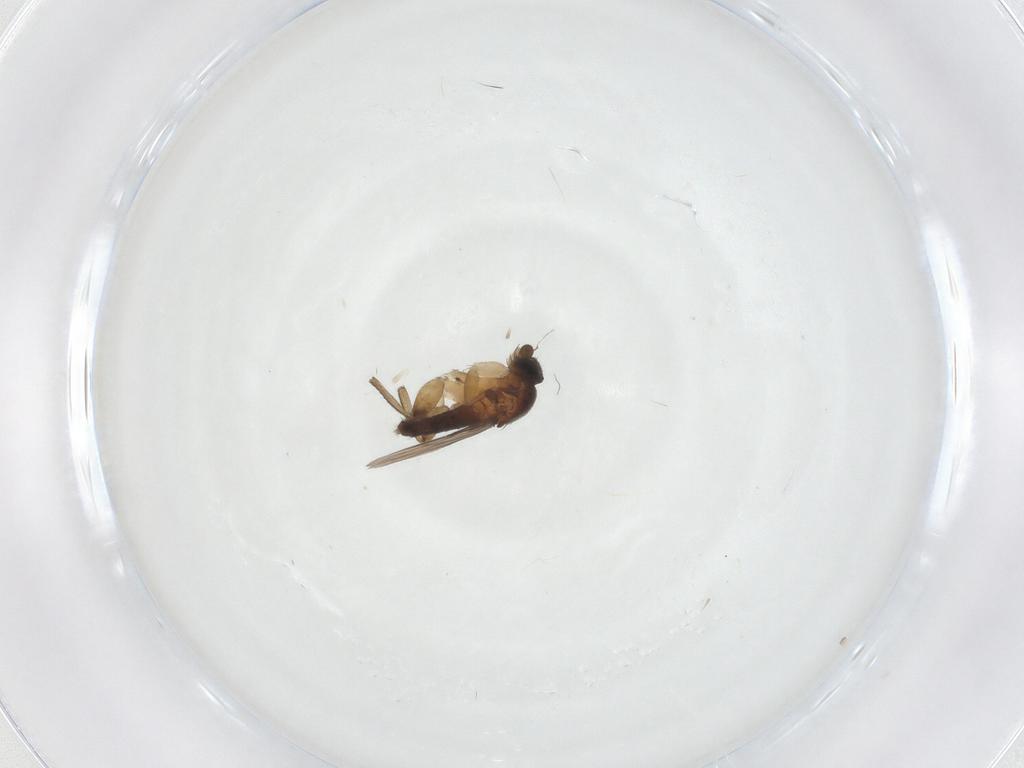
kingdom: Animalia
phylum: Arthropoda
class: Insecta
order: Diptera
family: Phoridae
